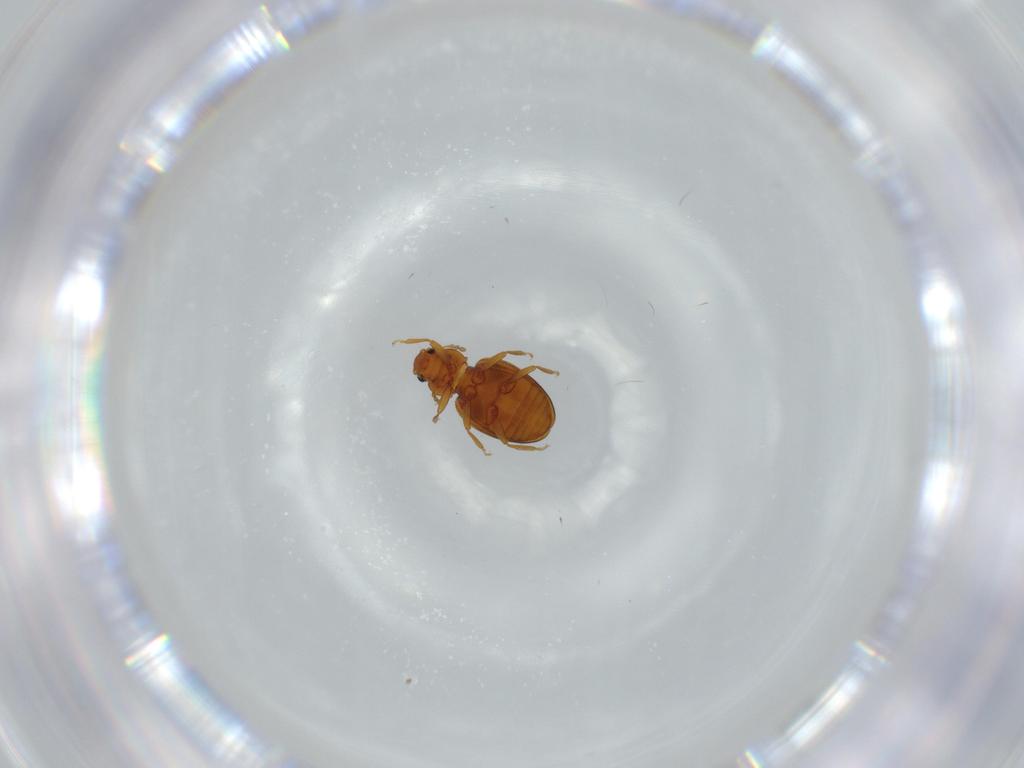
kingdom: Animalia
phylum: Arthropoda
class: Insecta
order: Coleoptera
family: Latridiidae
